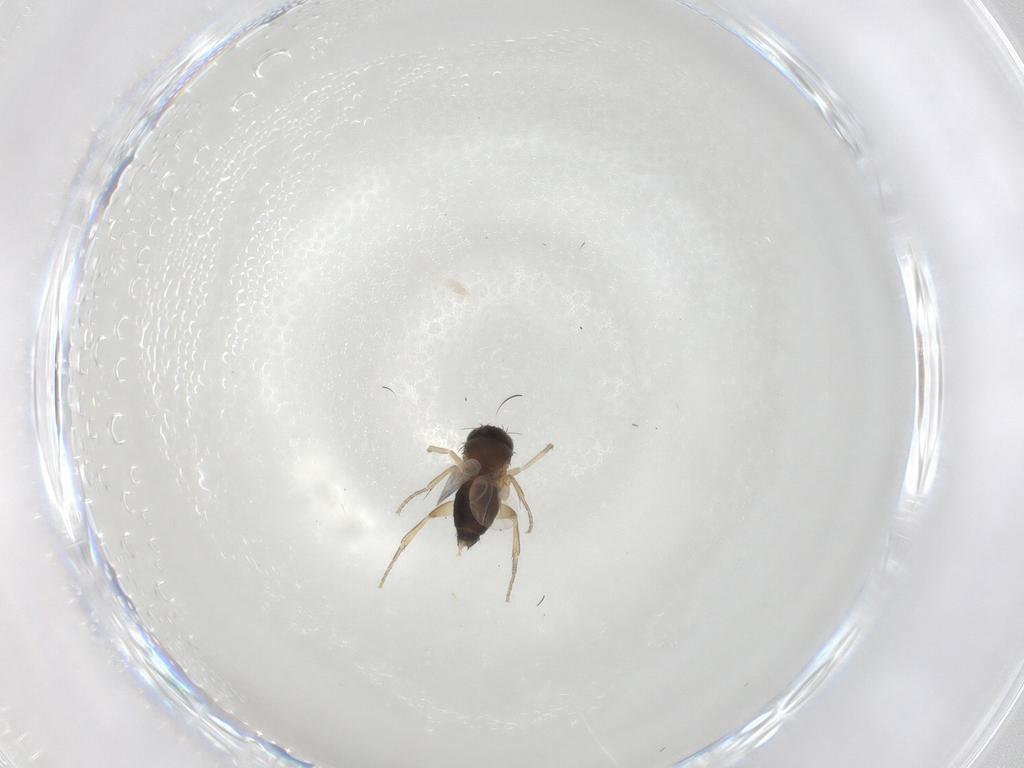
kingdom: Animalia
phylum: Arthropoda
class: Insecta
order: Diptera
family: Phoridae
